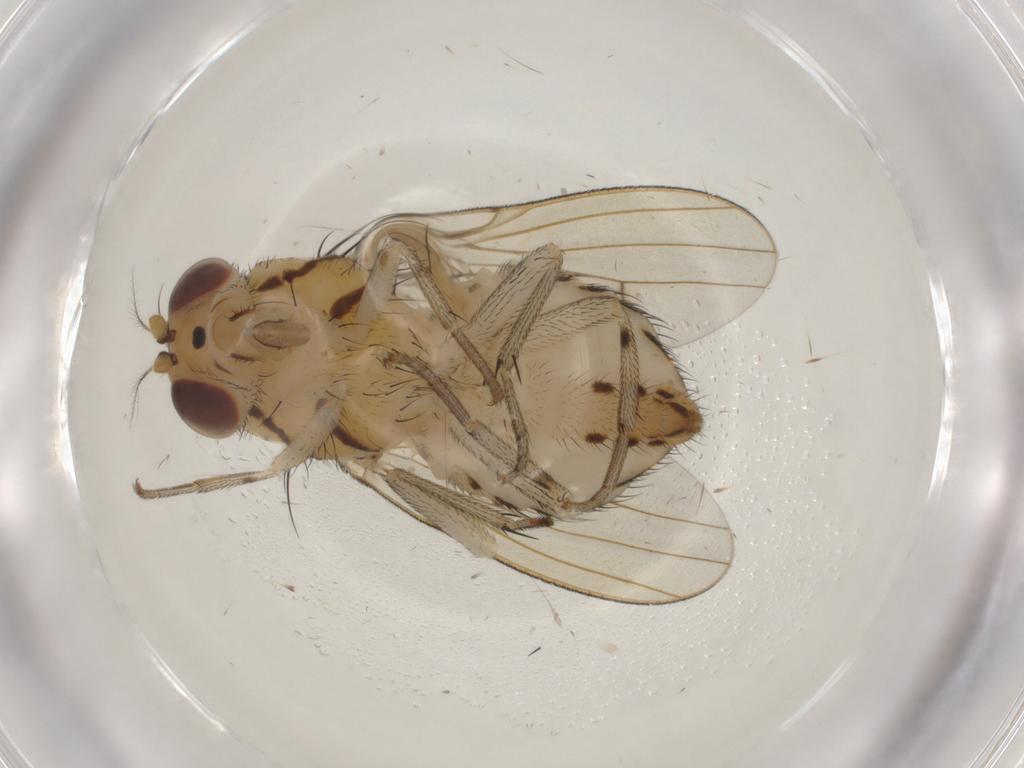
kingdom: Animalia
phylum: Arthropoda
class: Insecta
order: Diptera
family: Lauxaniidae
